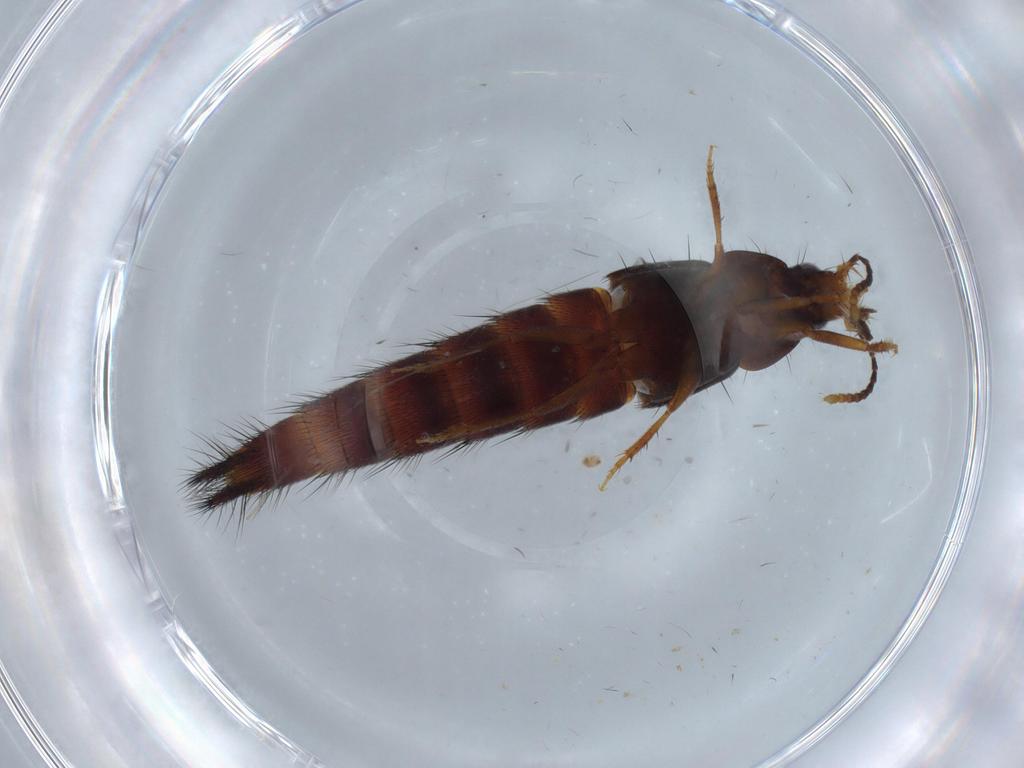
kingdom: Animalia
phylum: Arthropoda
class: Insecta
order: Coleoptera
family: Staphylinidae
